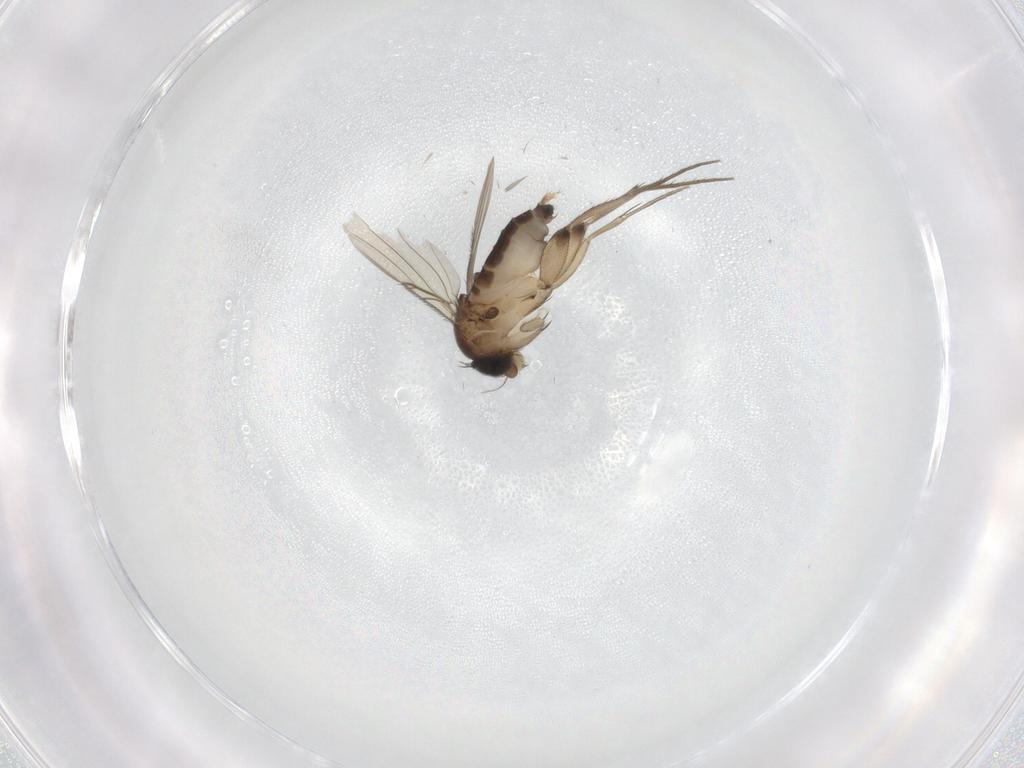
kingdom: Animalia
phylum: Arthropoda
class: Insecta
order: Diptera
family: Phoridae
